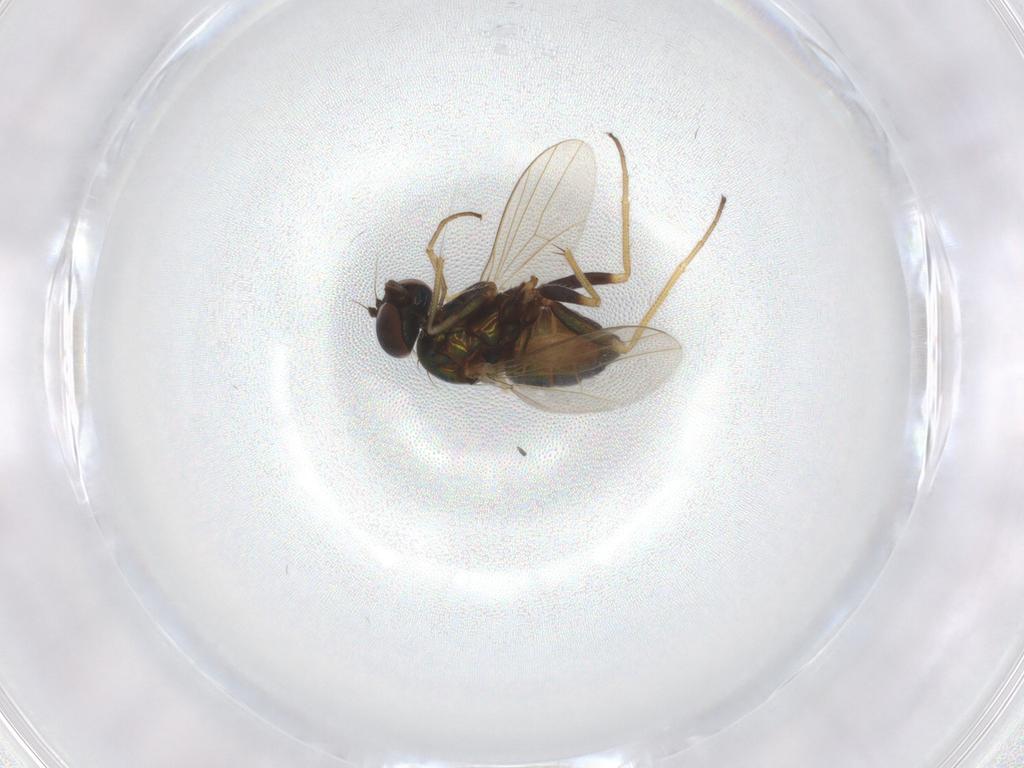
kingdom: Animalia
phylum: Arthropoda
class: Insecta
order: Diptera
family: Dolichopodidae
